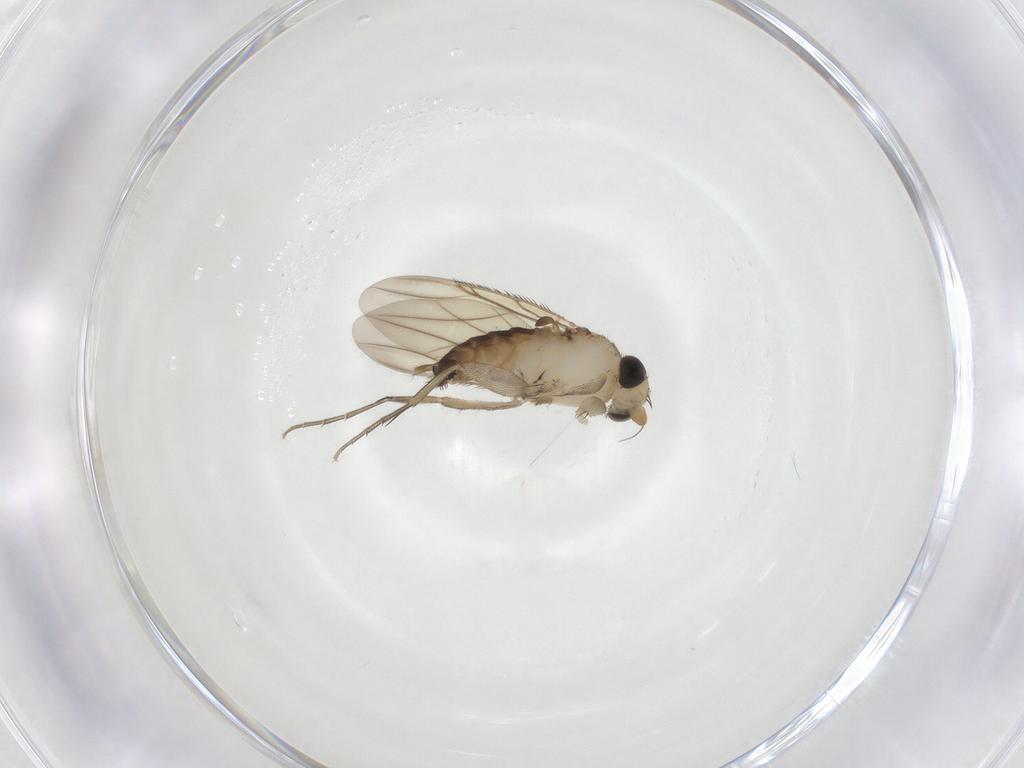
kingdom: Animalia
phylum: Arthropoda
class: Insecta
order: Diptera
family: Phoridae
